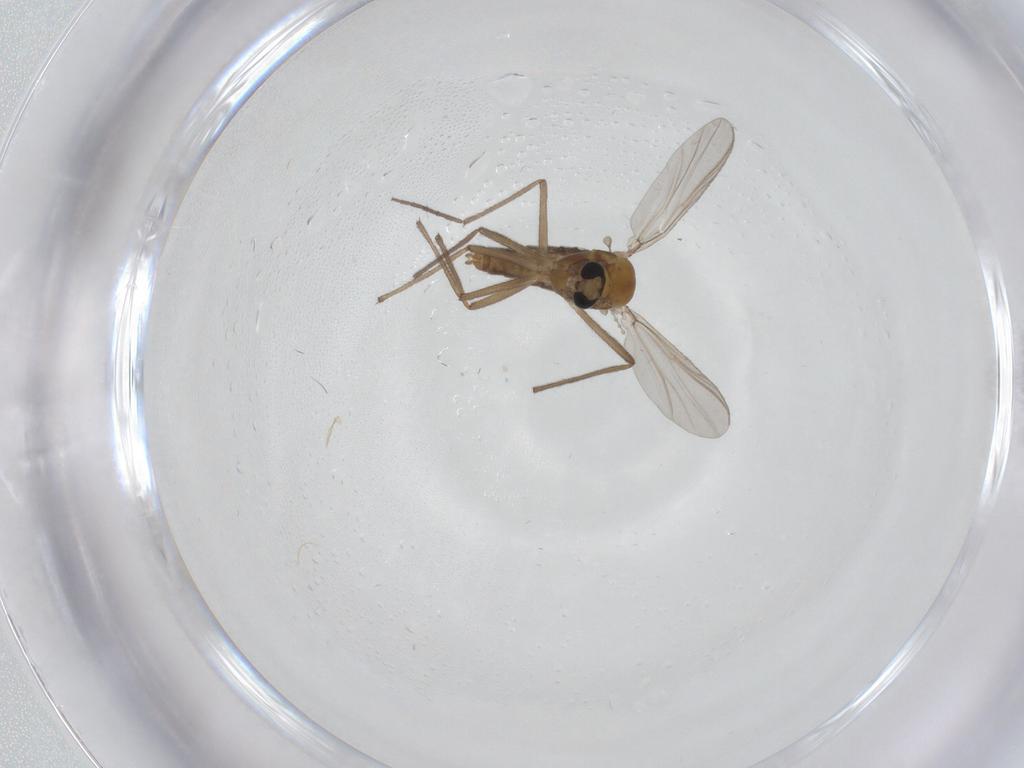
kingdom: Animalia
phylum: Arthropoda
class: Insecta
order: Diptera
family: Chironomidae
